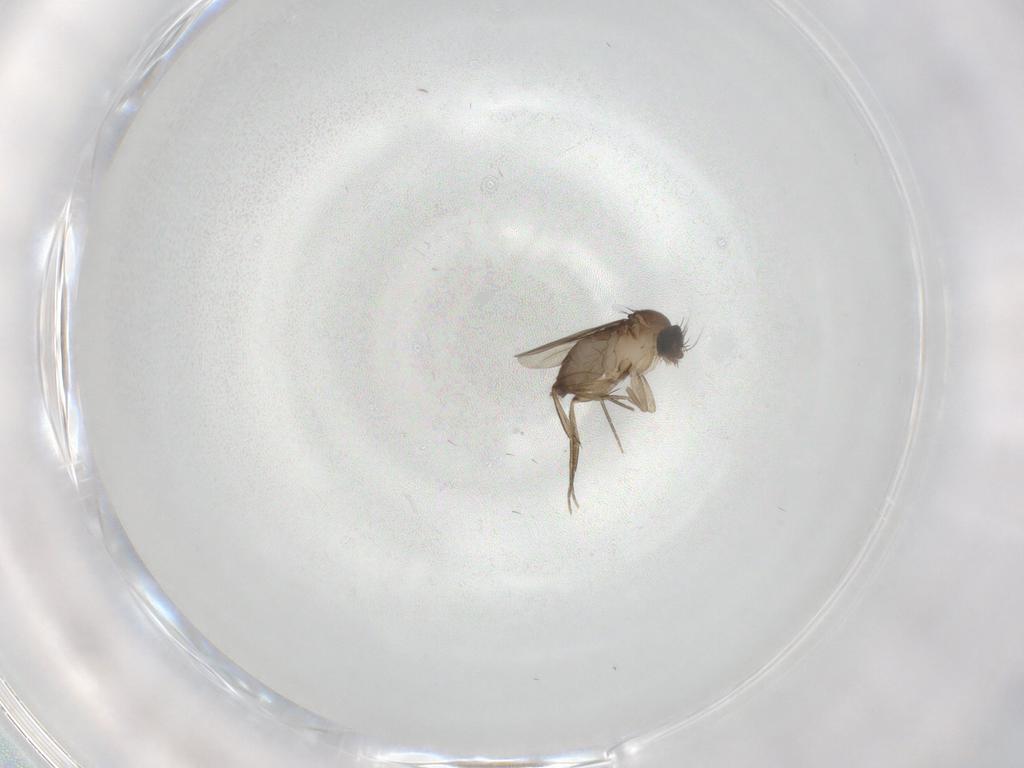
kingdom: Animalia
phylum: Arthropoda
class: Insecta
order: Diptera
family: Phoridae
